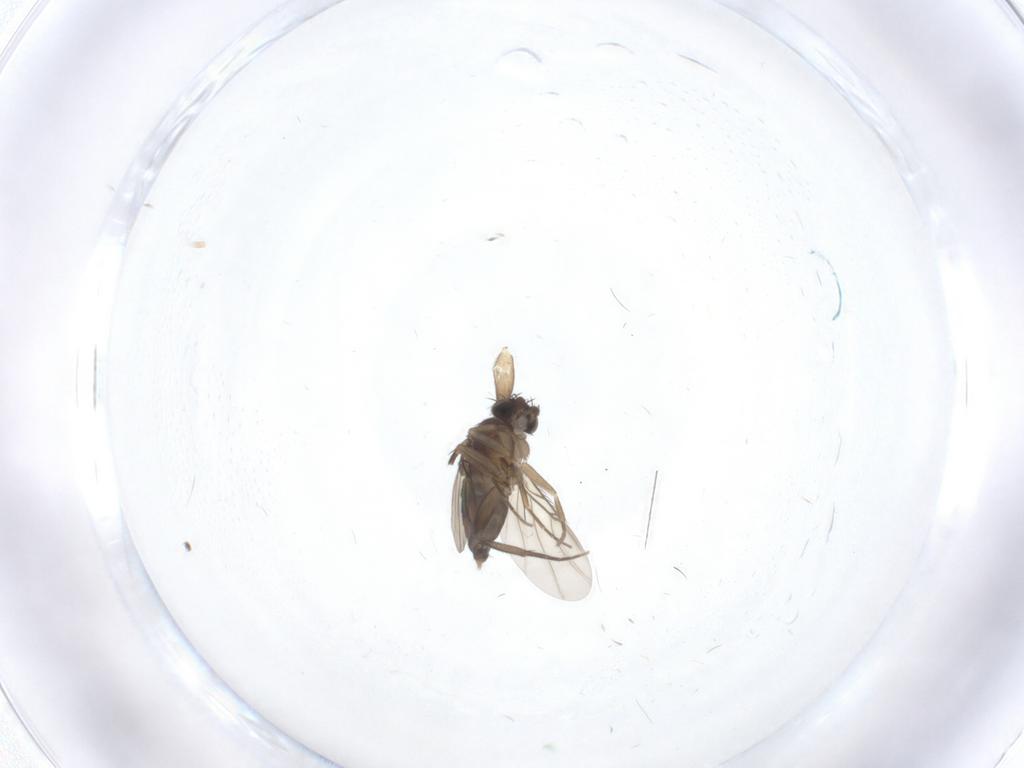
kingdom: Animalia
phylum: Arthropoda
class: Insecta
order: Diptera
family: Phoridae
